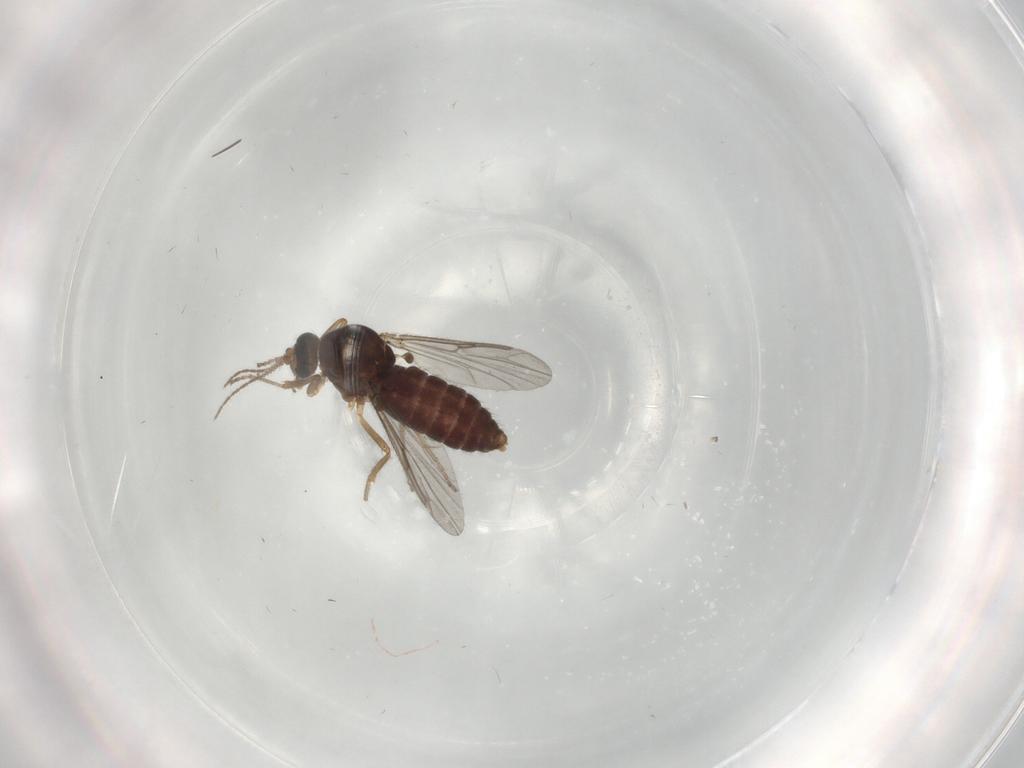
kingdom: Animalia
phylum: Arthropoda
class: Insecta
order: Diptera
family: Ceratopogonidae
